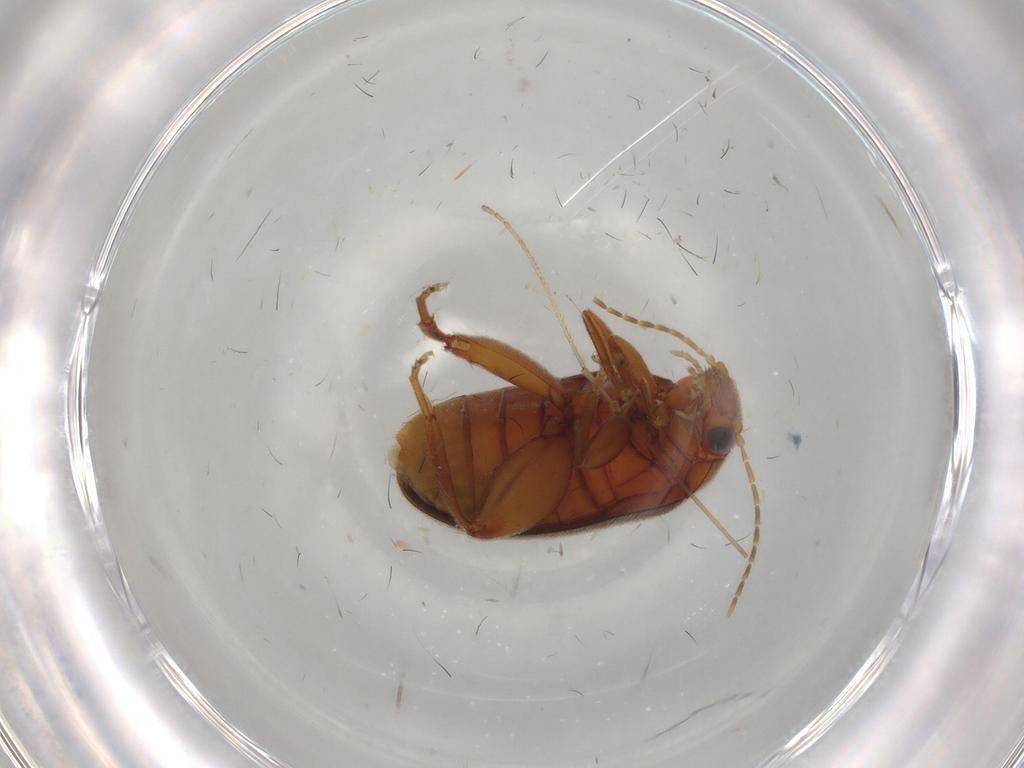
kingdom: Animalia
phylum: Arthropoda
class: Insecta
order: Coleoptera
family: Scirtidae
